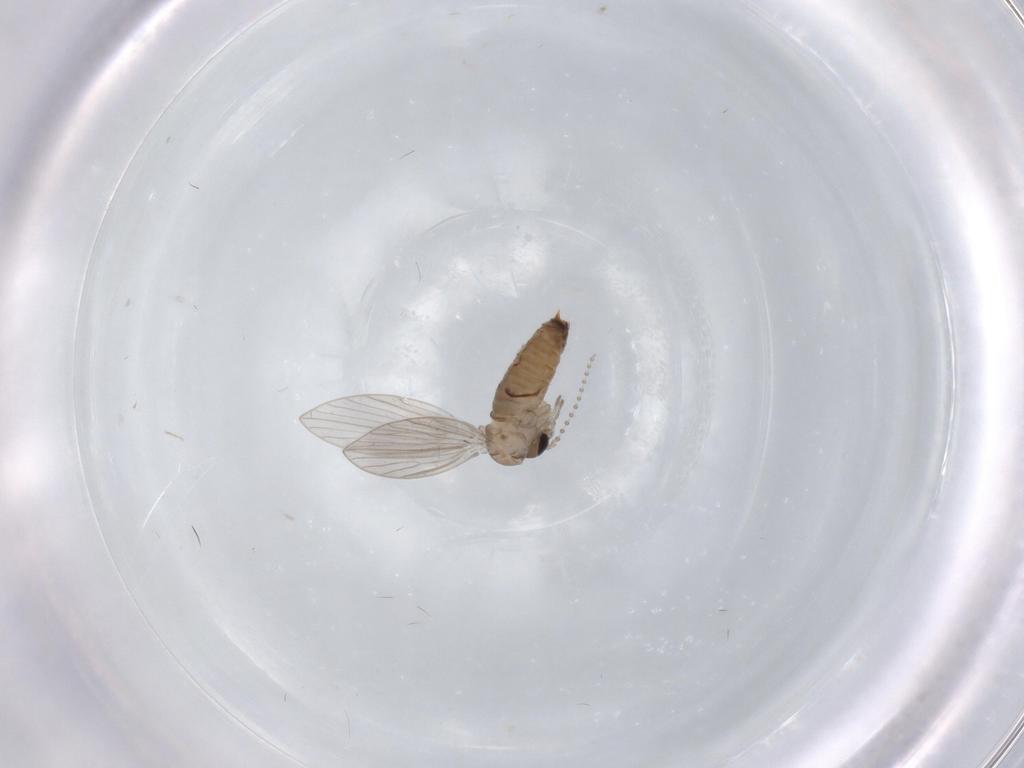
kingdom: Animalia
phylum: Arthropoda
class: Insecta
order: Diptera
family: Psychodidae
